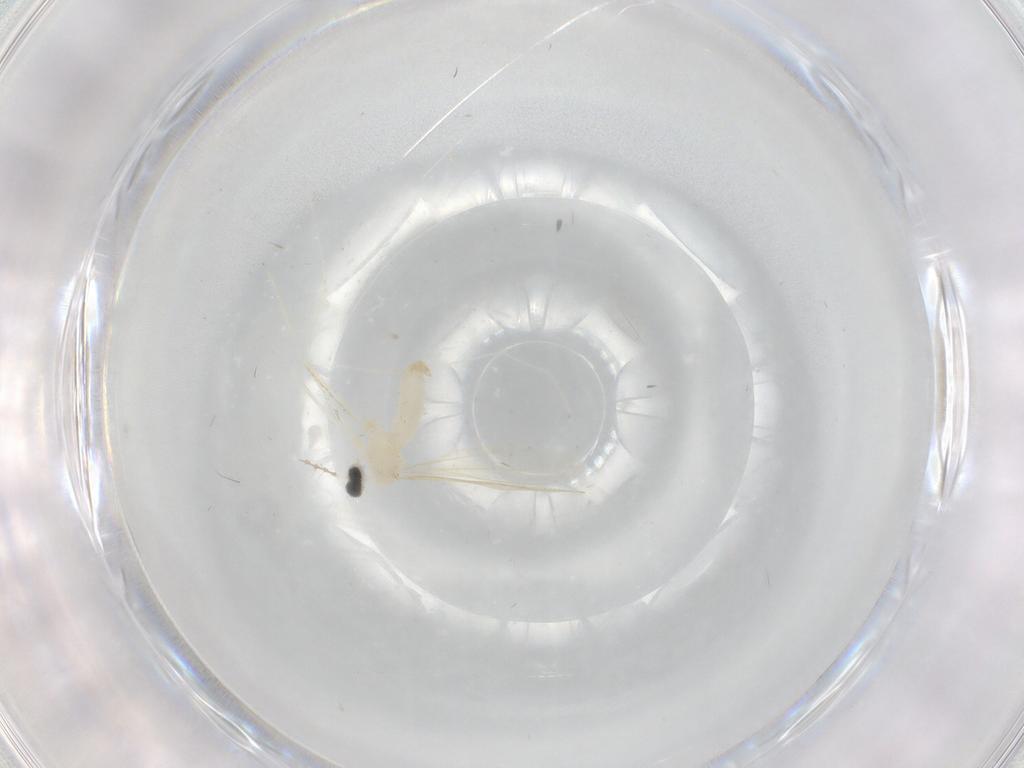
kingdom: Animalia
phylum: Arthropoda
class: Insecta
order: Diptera
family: Cecidomyiidae
